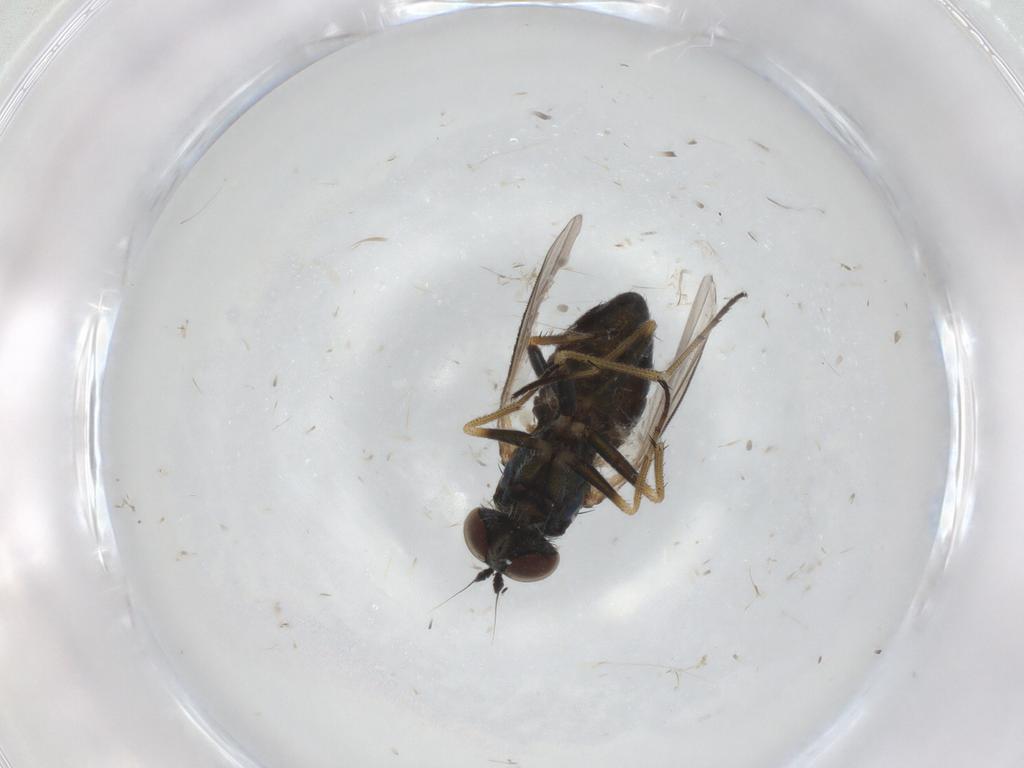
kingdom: Animalia
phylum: Arthropoda
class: Insecta
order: Diptera
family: Dolichopodidae
